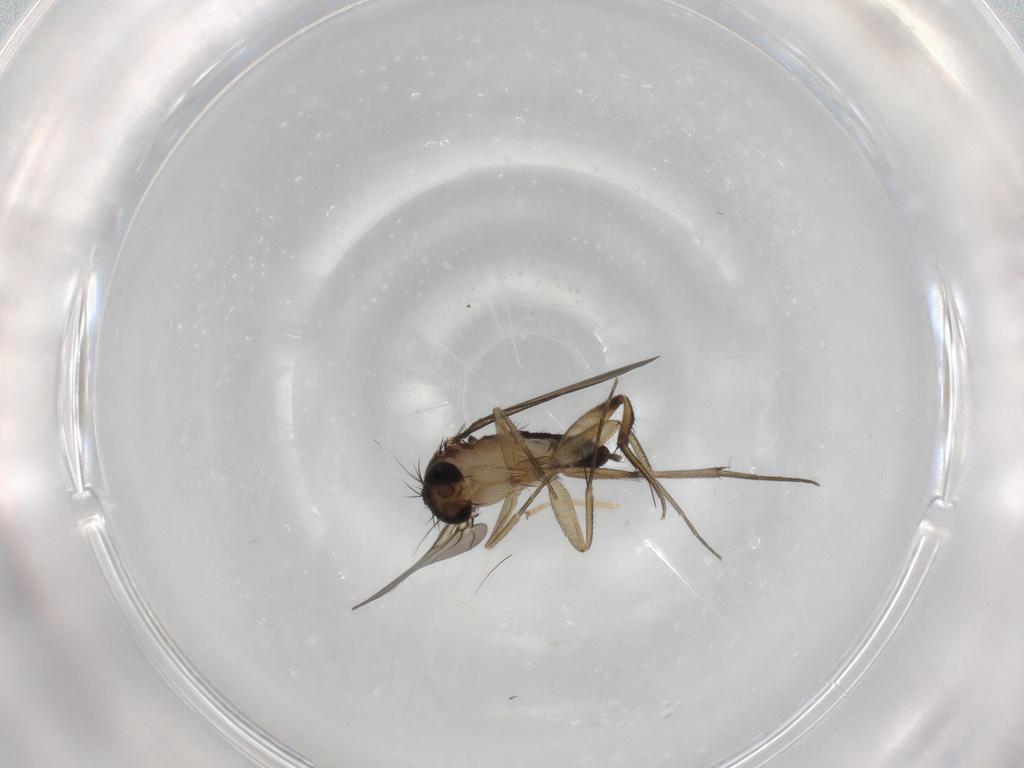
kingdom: Animalia
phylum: Arthropoda
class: Insecta
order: Diptera
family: Hybotidae
